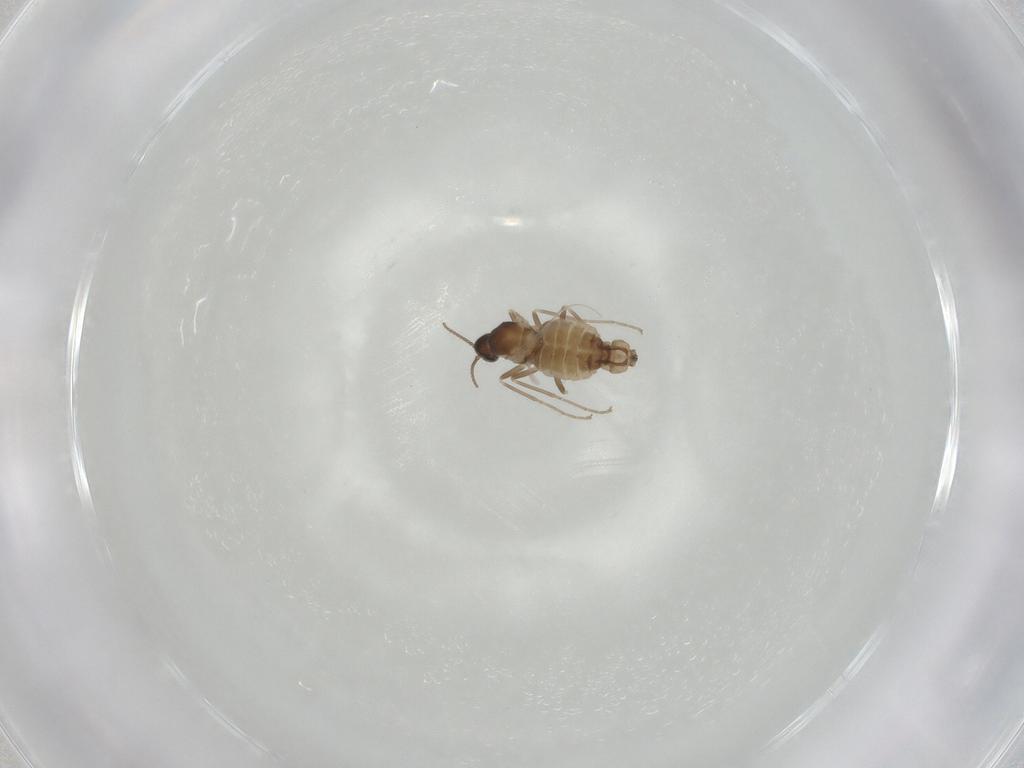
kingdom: Animalia
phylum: Arthropoda
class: Insecta
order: Diptera
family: Cecidomyiidae
